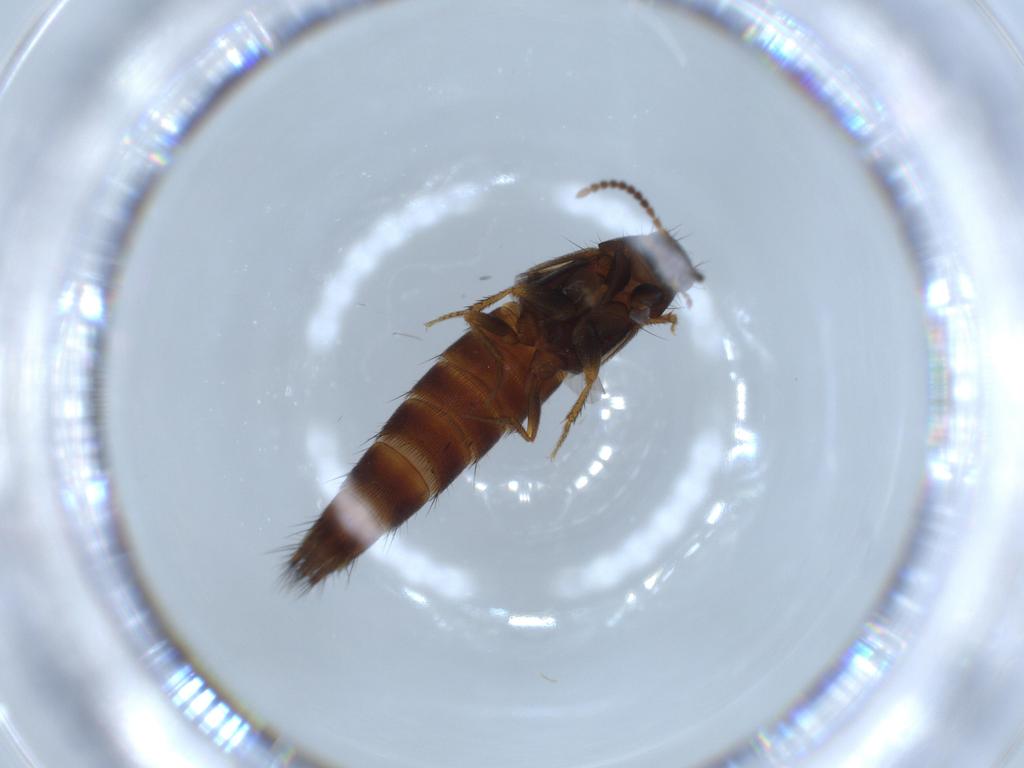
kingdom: Animalia
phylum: Arthropoda
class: Insecta
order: Coleoptera
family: Staphylinidae
